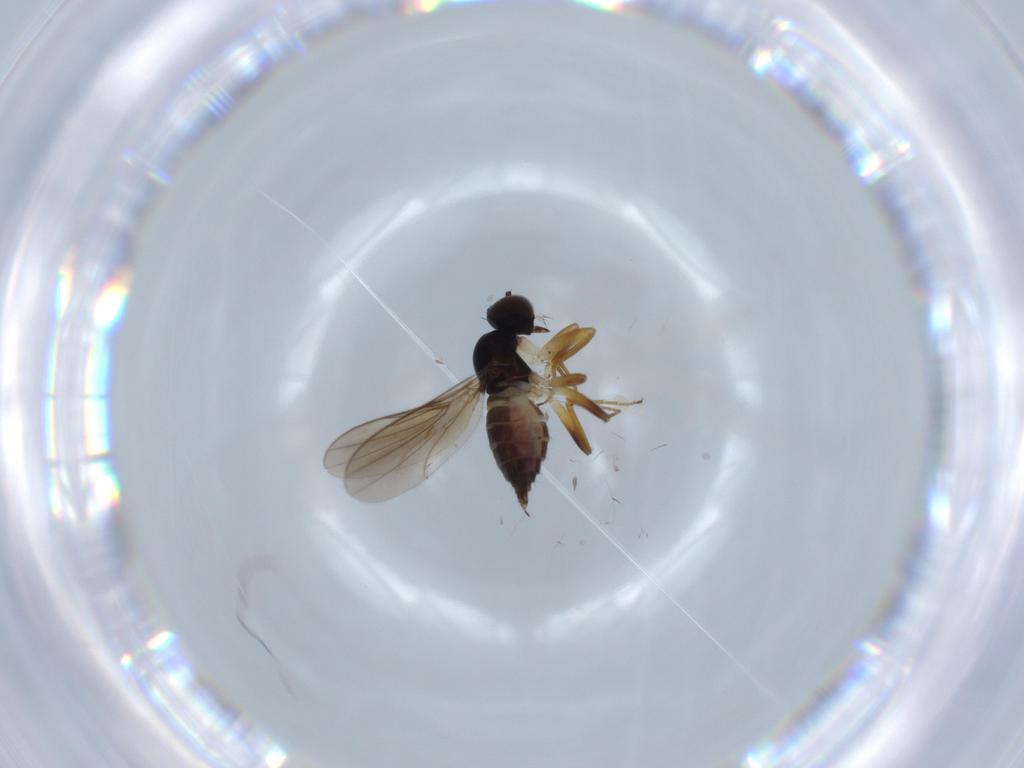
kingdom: Animalia
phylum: Arthropoda
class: Insecta
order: Diptera
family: Hybotidae
